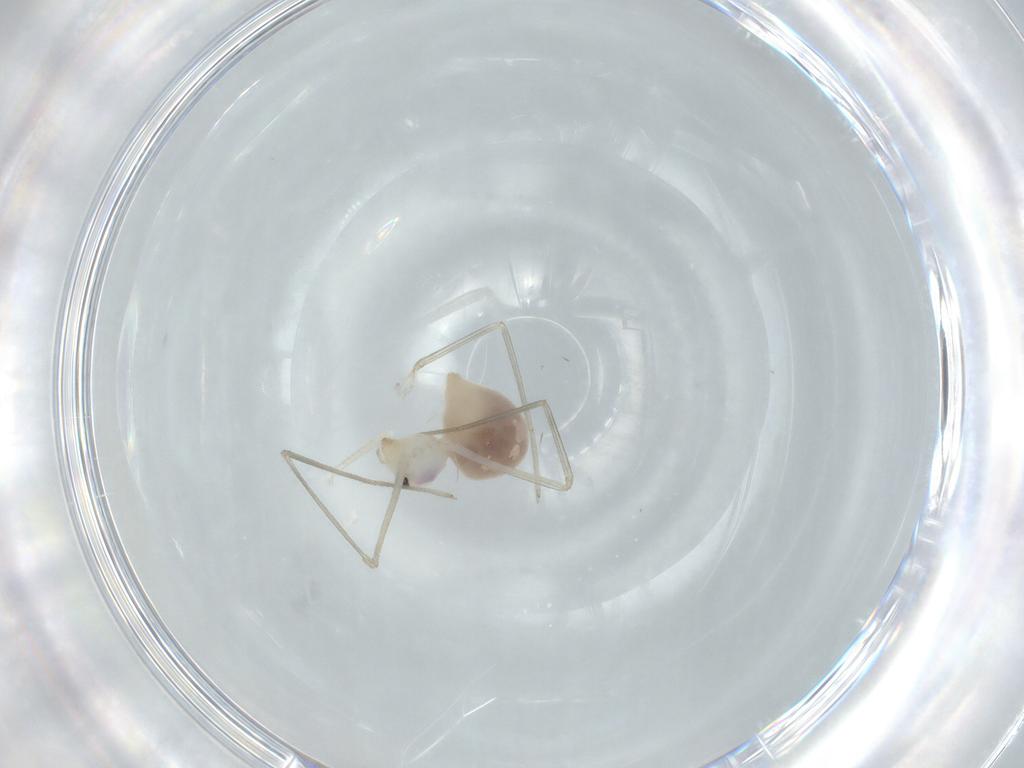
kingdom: Animalia
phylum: Arthropoda
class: Arachnida
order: Araneae
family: Pholcidae
